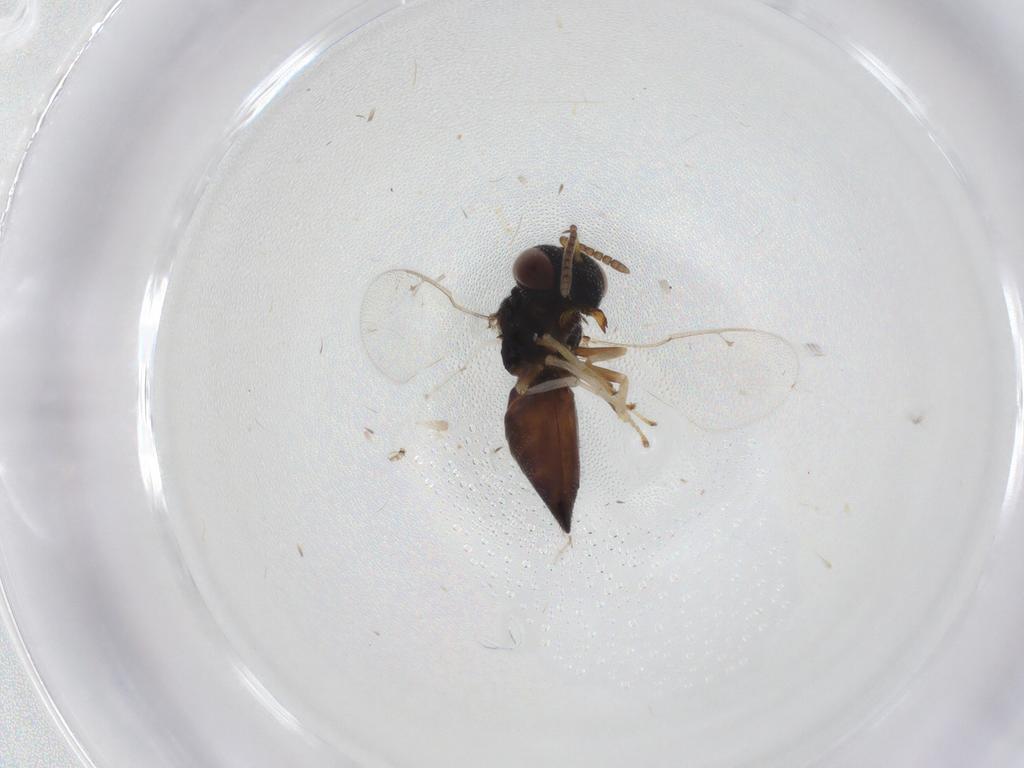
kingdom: Animalia
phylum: Arthropoda
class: Insecta
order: Hymenoptera
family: Pteromalidae
